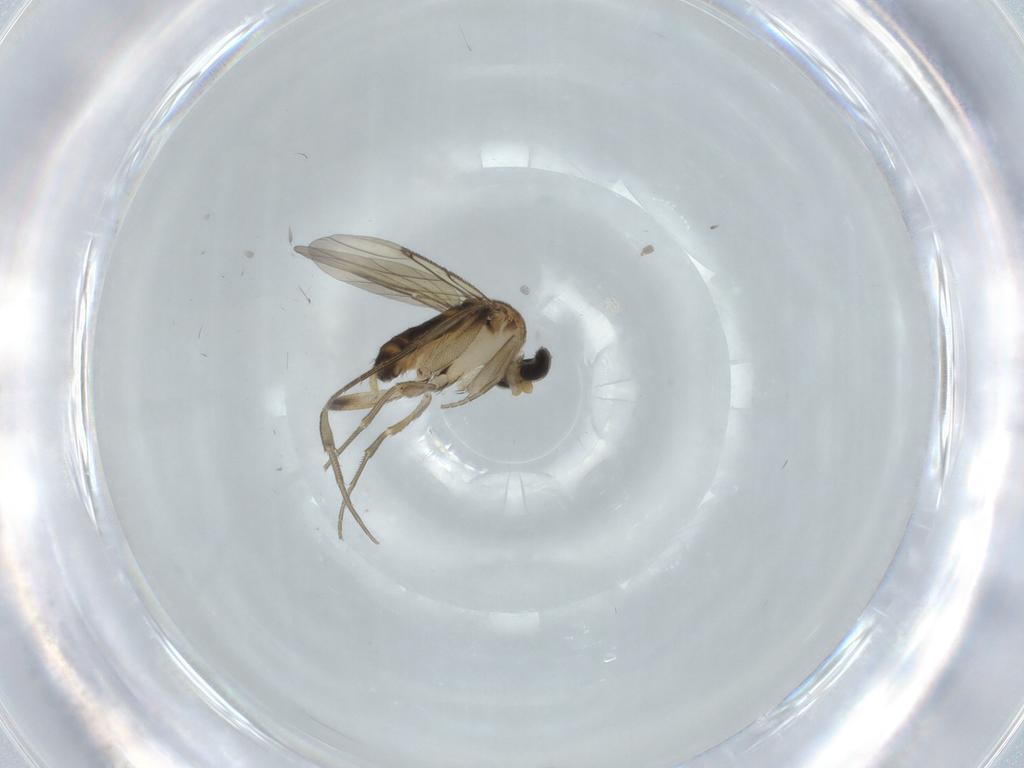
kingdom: Animalia
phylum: Arthropoda
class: Insecta
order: Diptera
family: Phoridae
